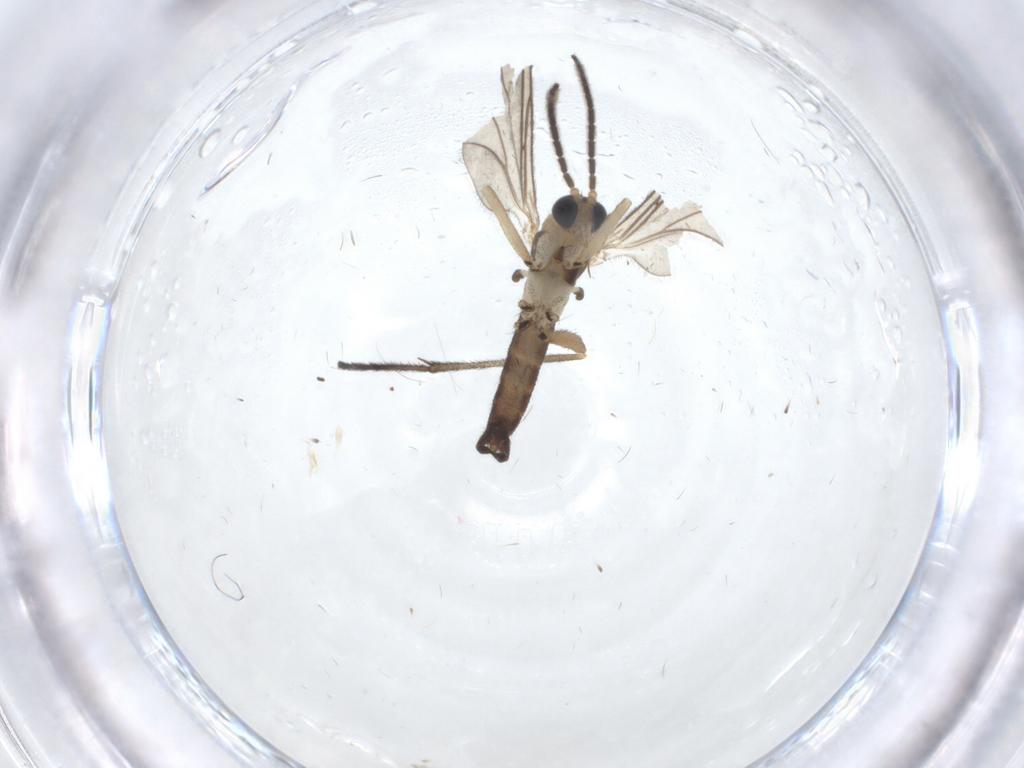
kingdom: Animalia
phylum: Arthropoda
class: Insecta
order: Diptera
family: Sciaridae
